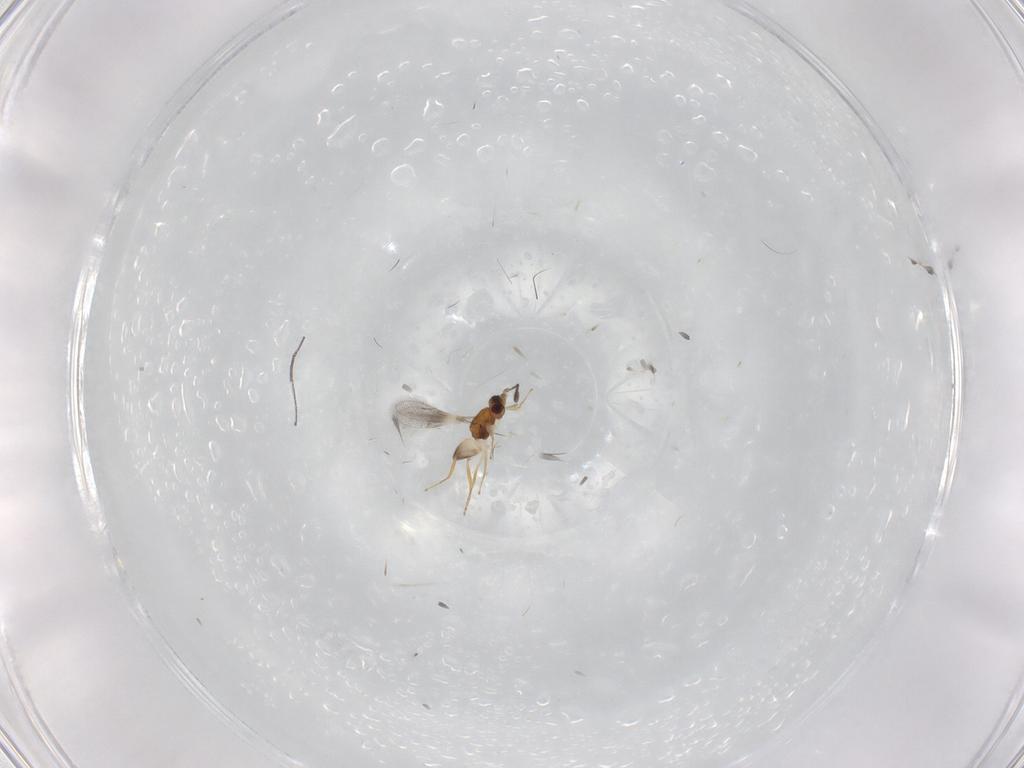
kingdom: Animalia
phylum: Arthropoda
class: Insecta
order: Hymenoptera
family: Mymaridae
